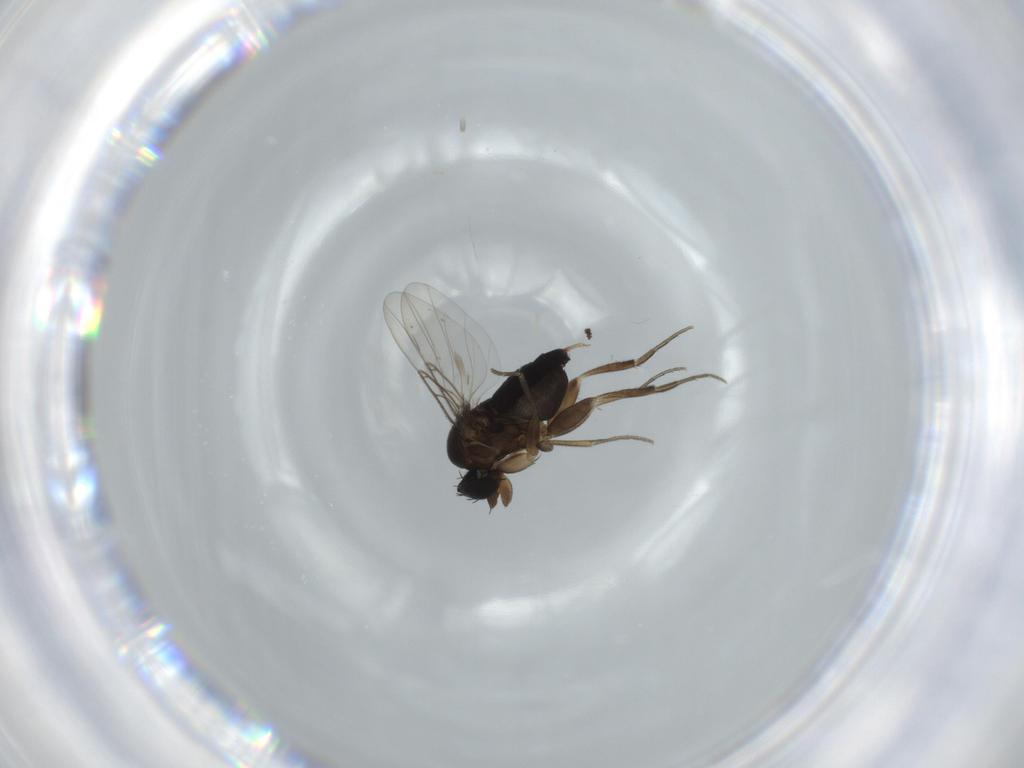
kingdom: Animalia
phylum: Arthropoda
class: Insecta
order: Diptera
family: Phoridae
